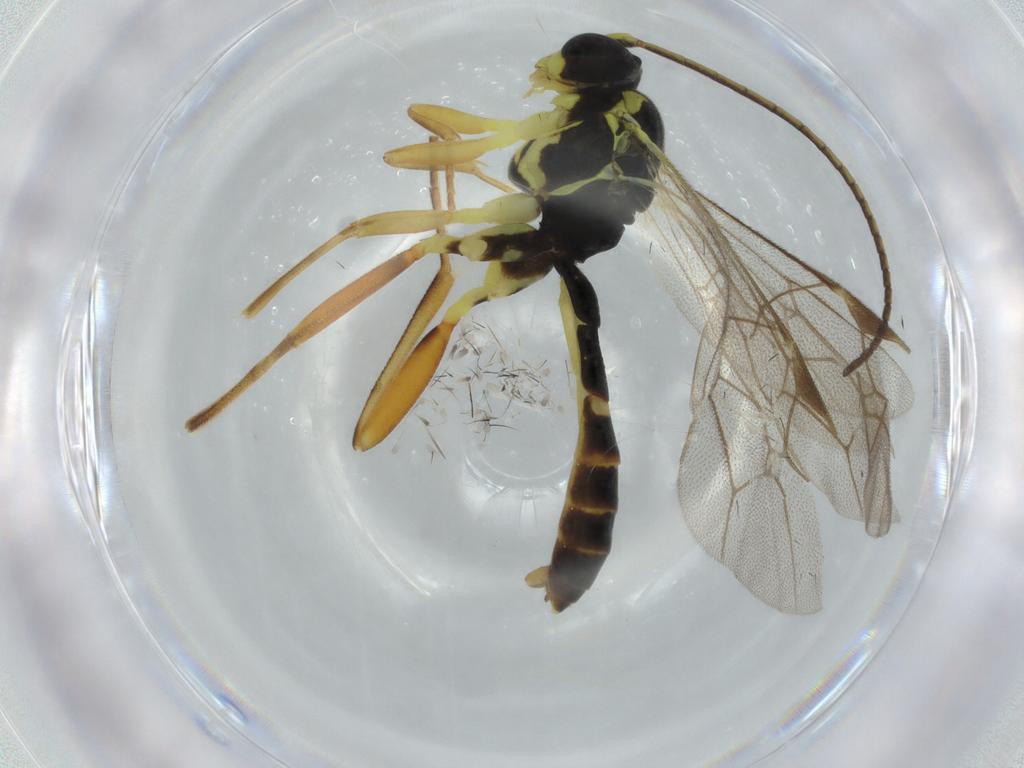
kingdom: Animalia
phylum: Arthropoda
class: Insecta
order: Hymenoptera
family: Ichneumonidae
